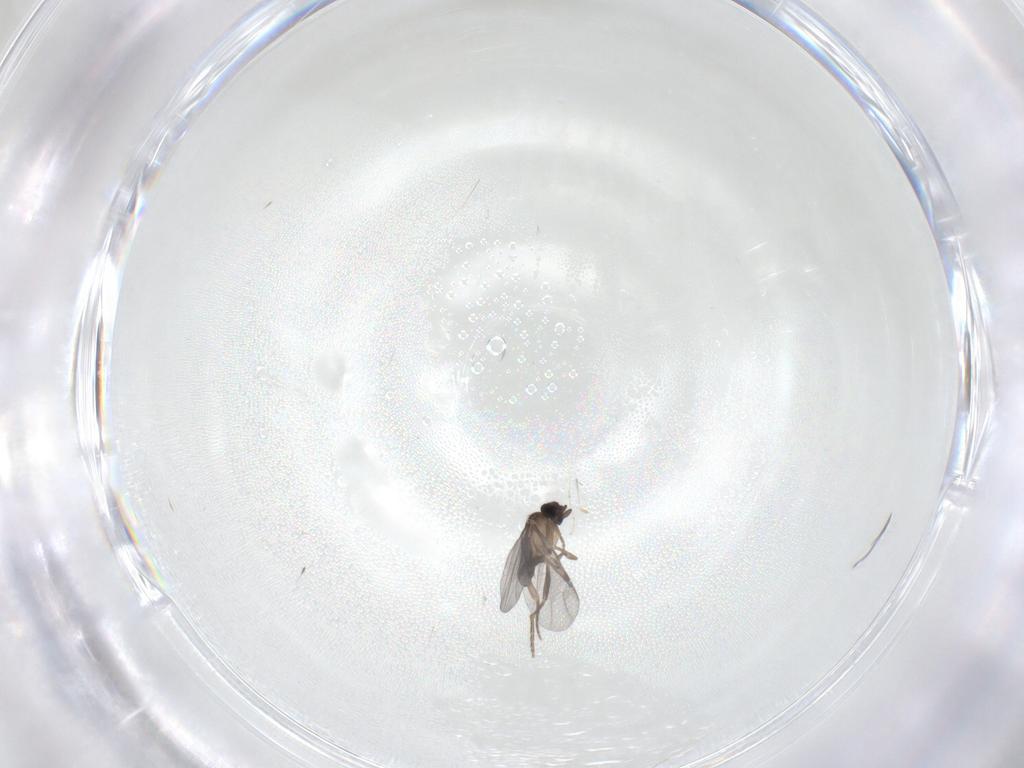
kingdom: Animalia
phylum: Arthropoda
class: Insecta
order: Diptera
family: Cecidomyiidae
